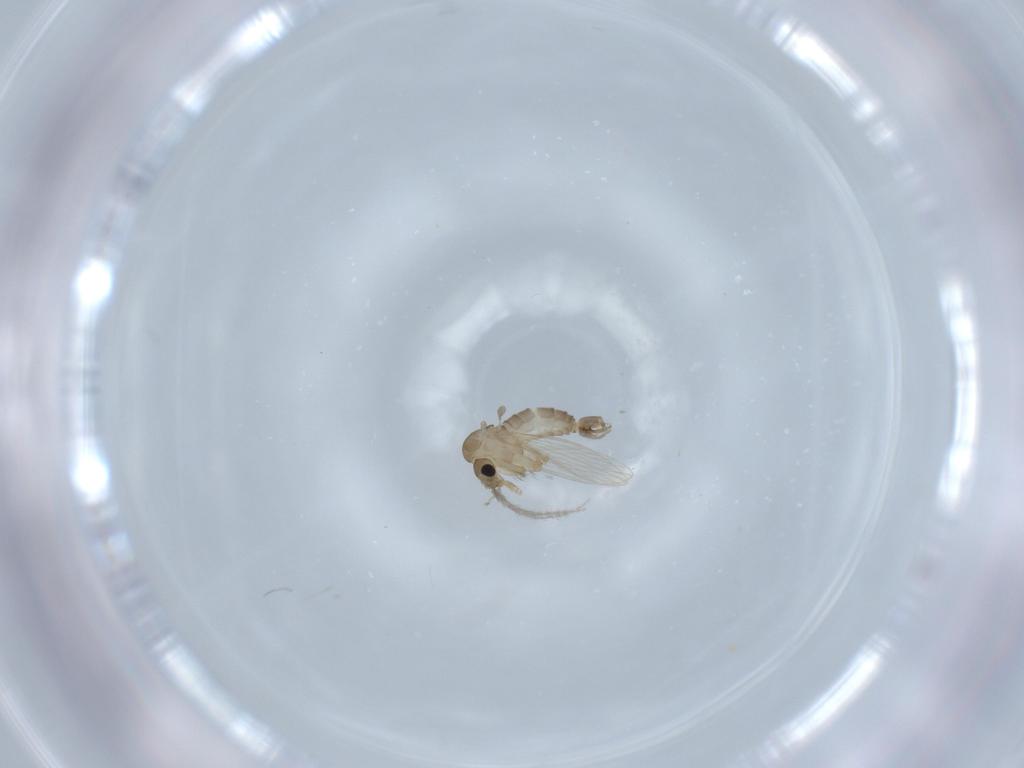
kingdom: Animalia
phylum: Arthropoda
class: Insecta
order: Diptera
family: Psychodidae
